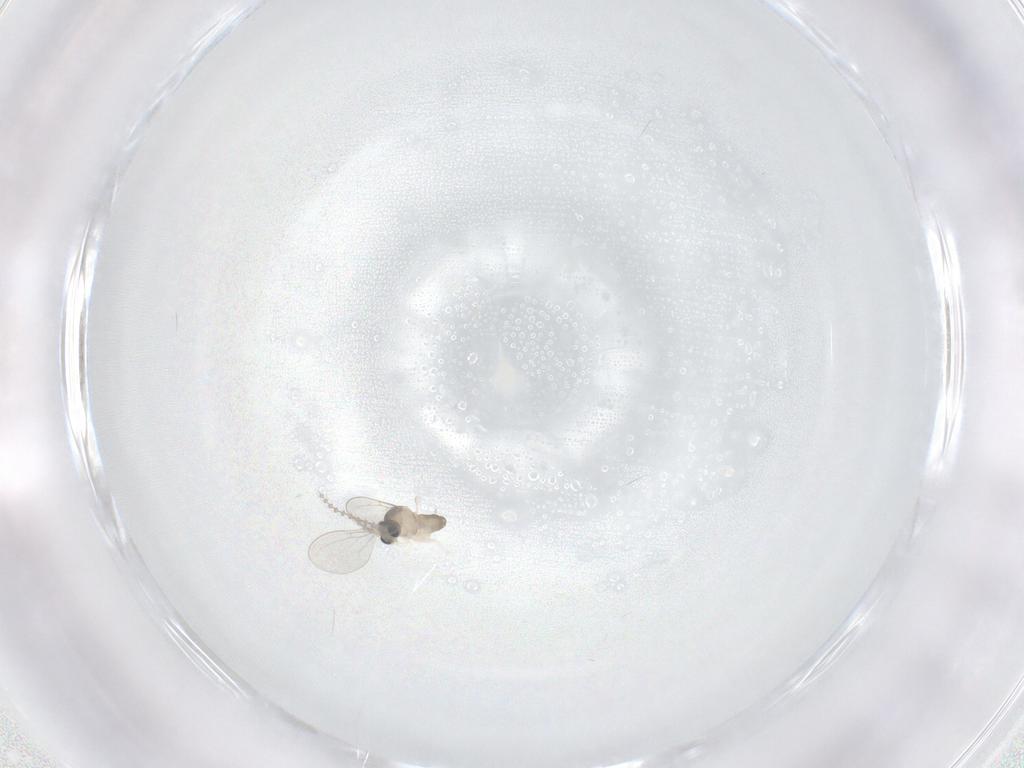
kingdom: Animalia
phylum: Arthropoda
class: Insecta
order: Diptera
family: Cecidomyiidae
